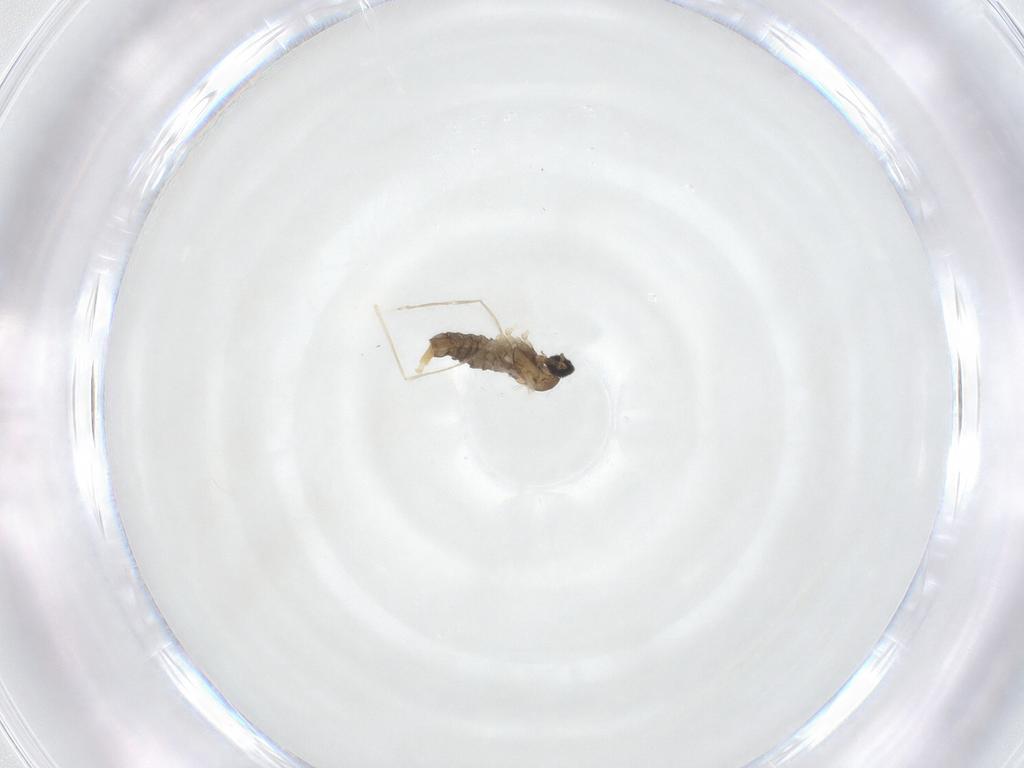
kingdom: Animalia
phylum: Arthropoda
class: Insecta
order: Diptera
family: Cecidomyiidae
